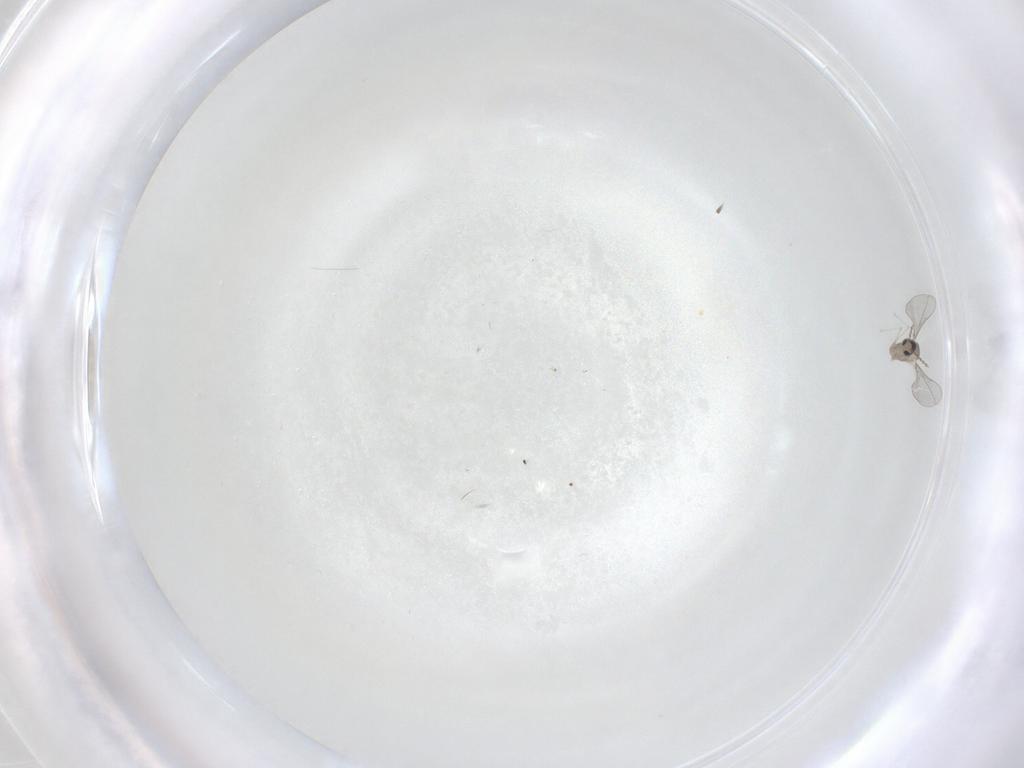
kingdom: Animalia
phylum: Arthropoda
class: Insecta
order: Diptera
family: Cecidomyiidae
